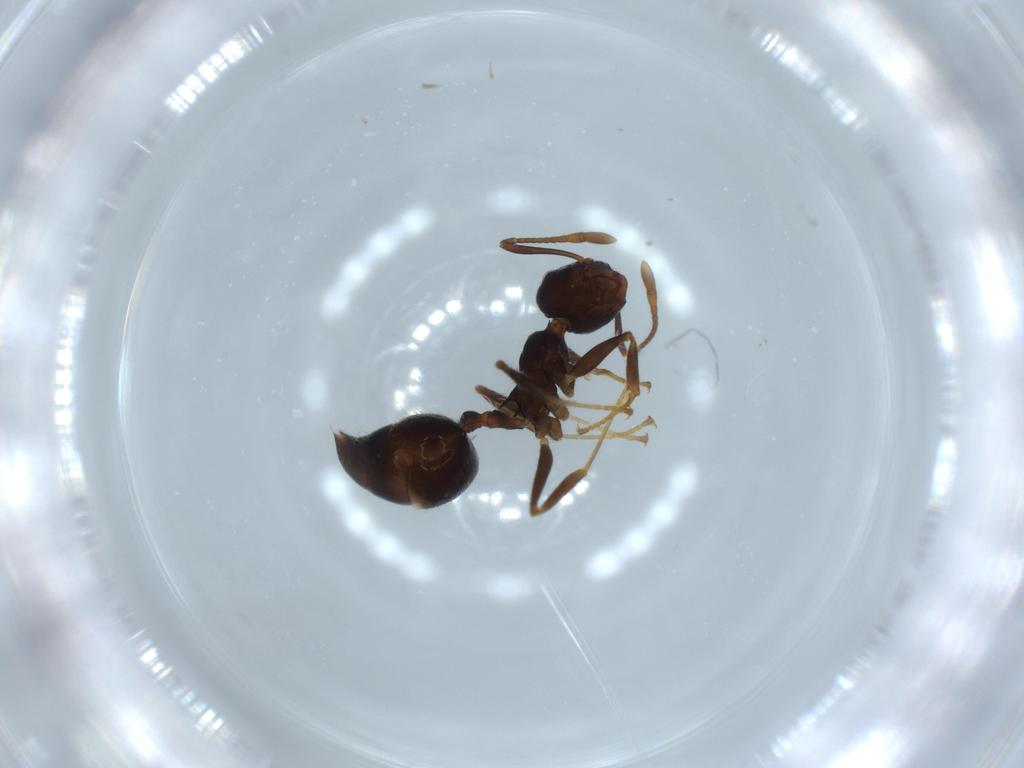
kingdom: Animalia
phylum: Arthropoda
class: Insecta
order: Hymenoptera
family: Formicidae
